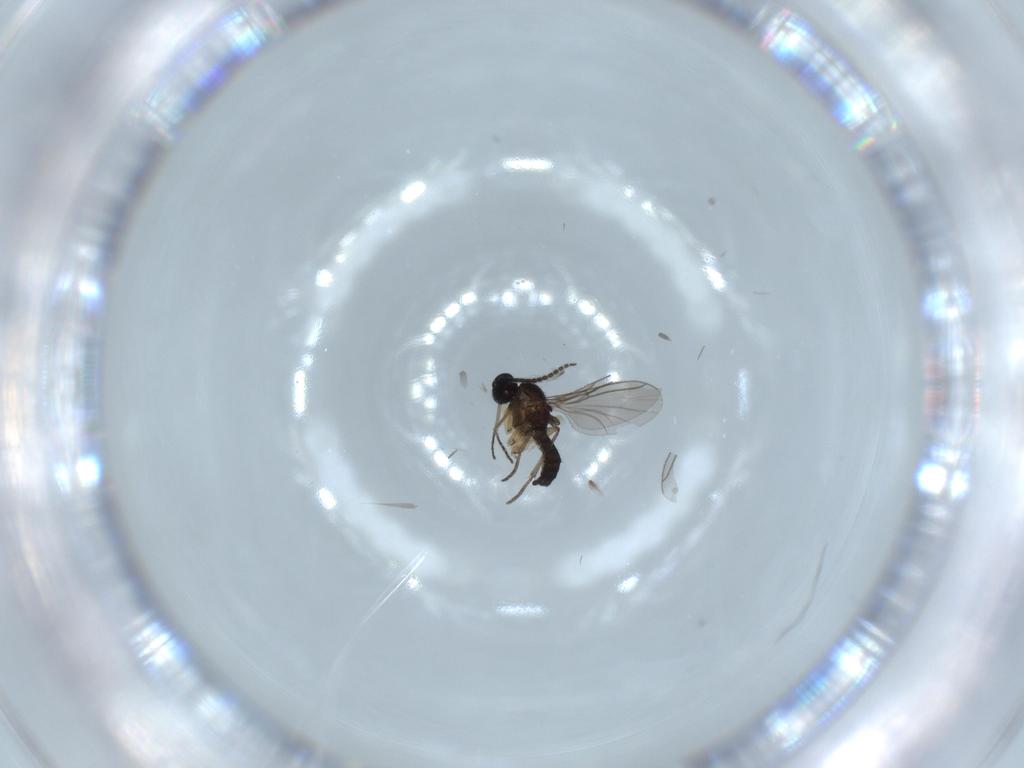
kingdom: Animalia
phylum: Arthropoda
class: Insecta
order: Diptera
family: Sciaridae
